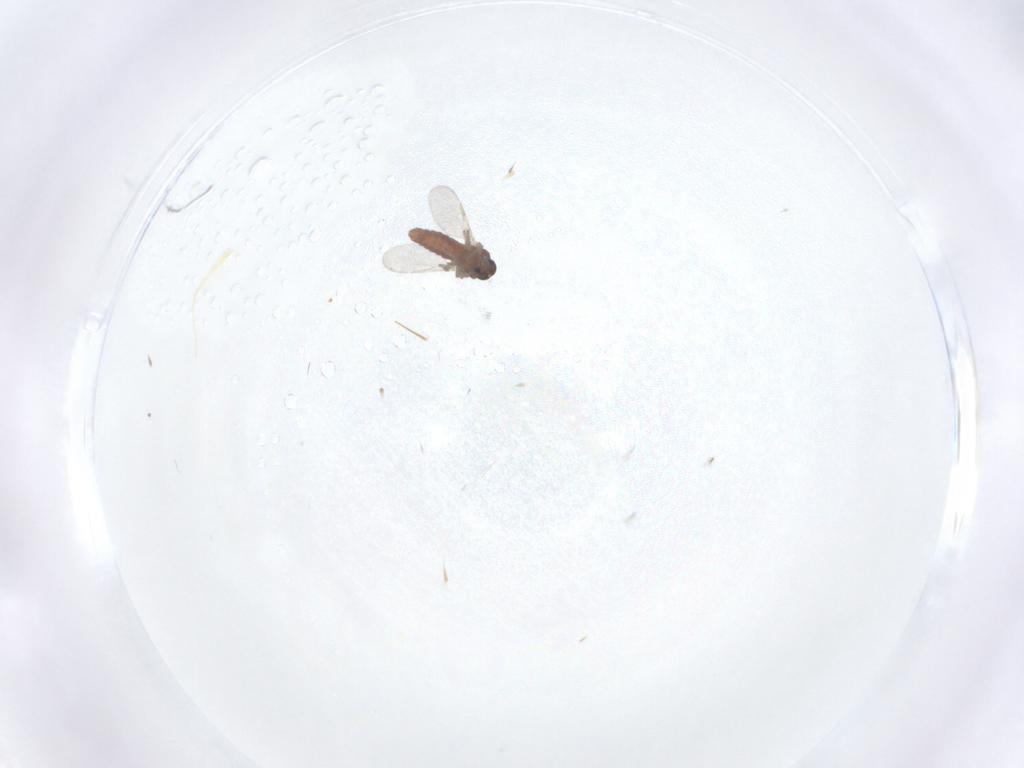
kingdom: Animalia
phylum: Arthropoda
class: Insecta
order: Diptera
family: Ceratopogonidae
